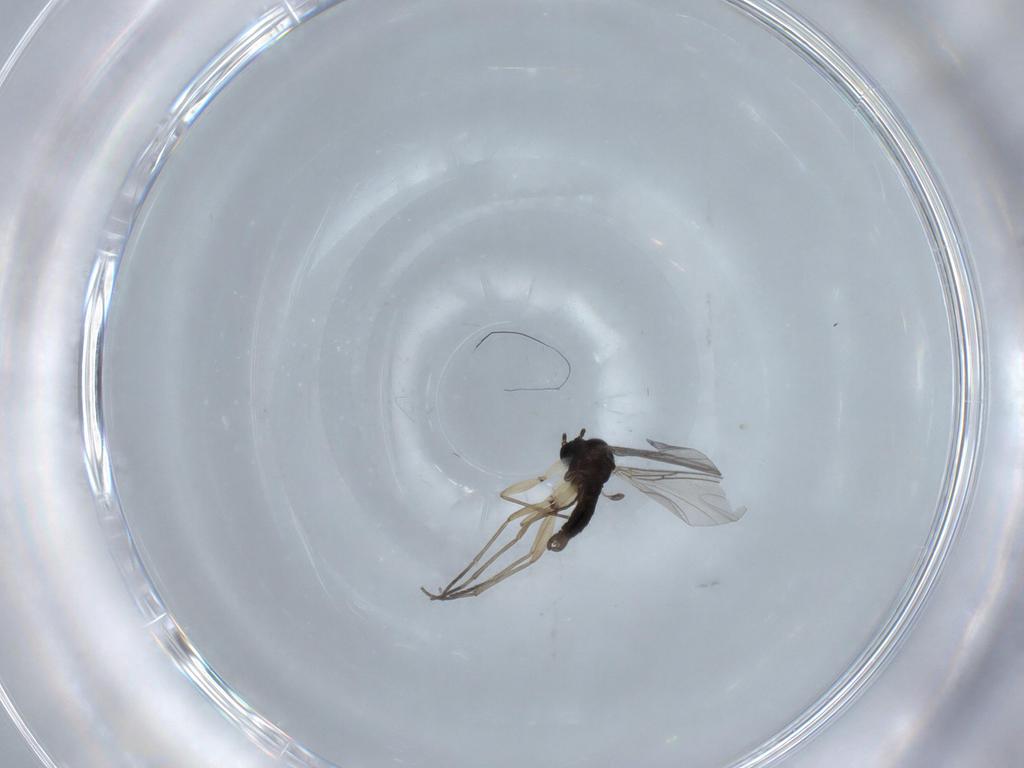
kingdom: Animalia
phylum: Arthropoda
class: Insecta
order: Diptera
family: Sciaridae
